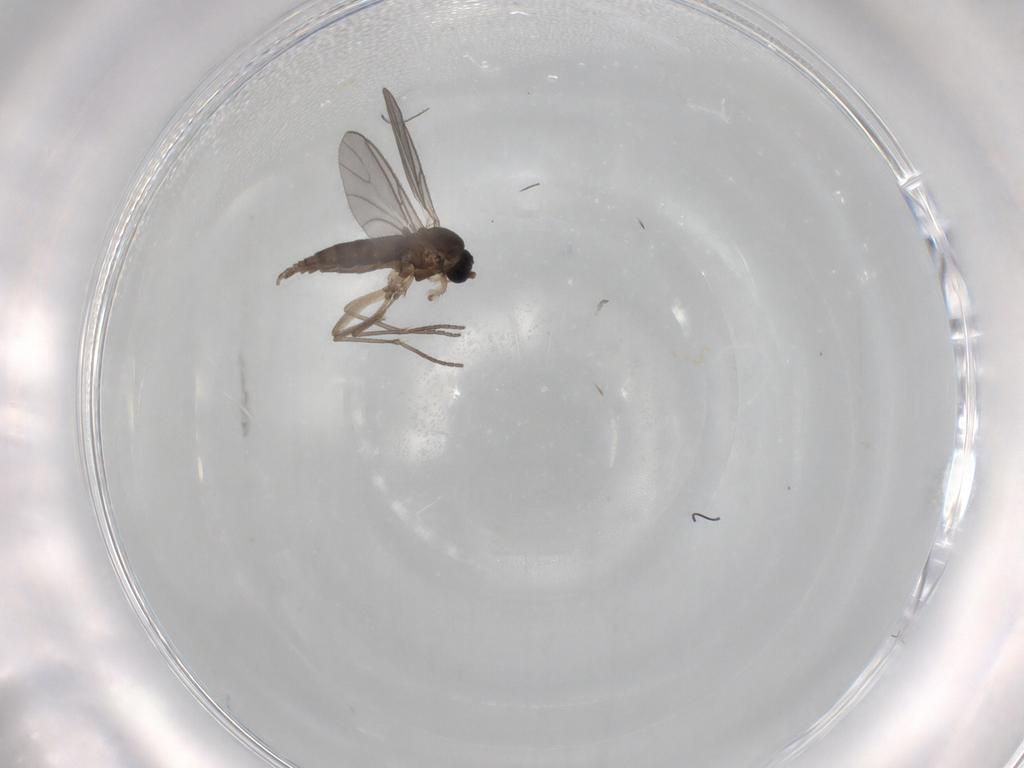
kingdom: Animalia
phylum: Arthropoda
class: Insecta
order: Diptera
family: Sciaridae
